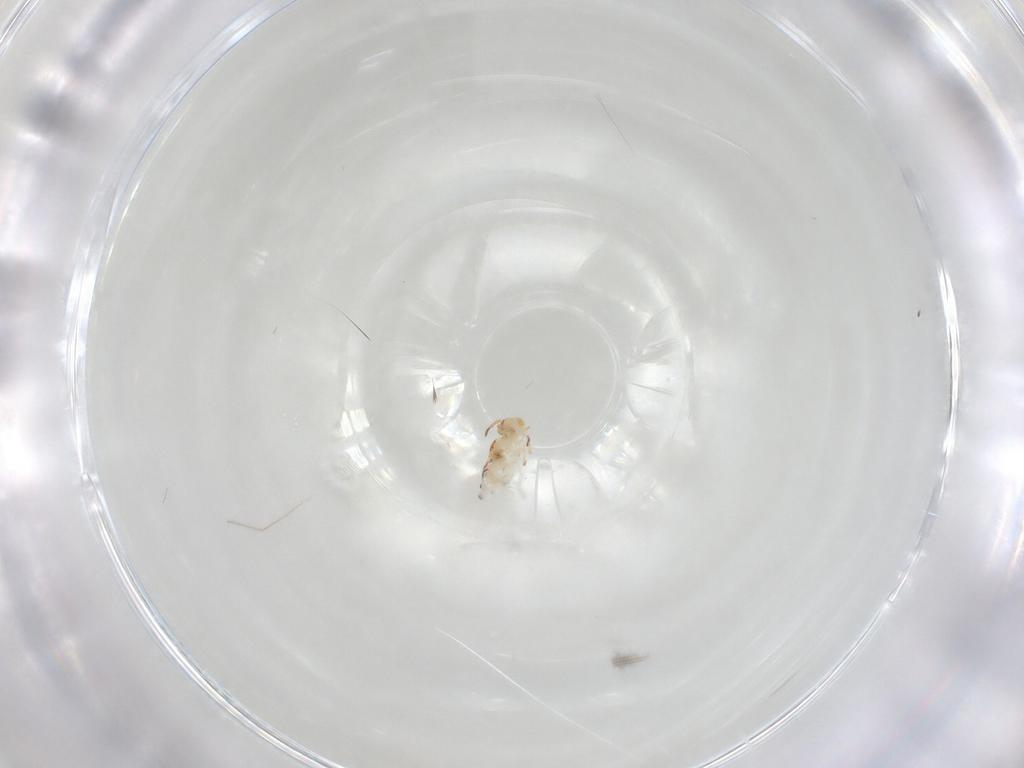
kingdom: Animalia
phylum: Arthropoda
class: Collembola
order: Symphypleona
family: Bourletiellidae
